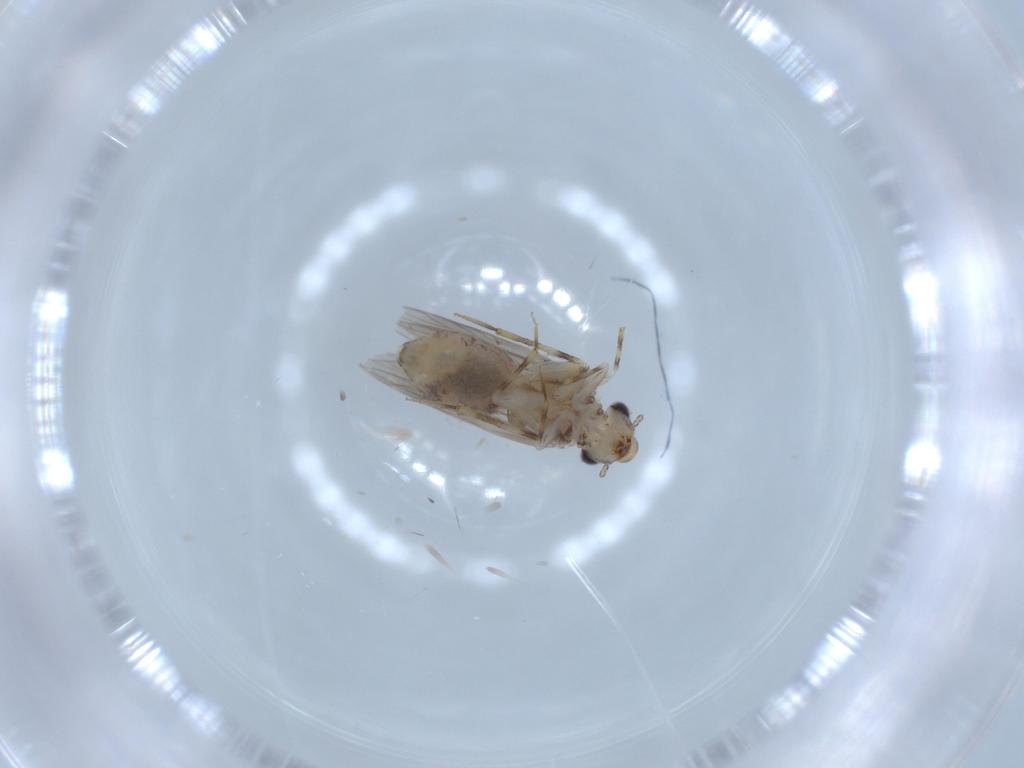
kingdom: Animalia
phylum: Arthropoda
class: Insecta
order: Psocodea
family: Lepidopsocidae
